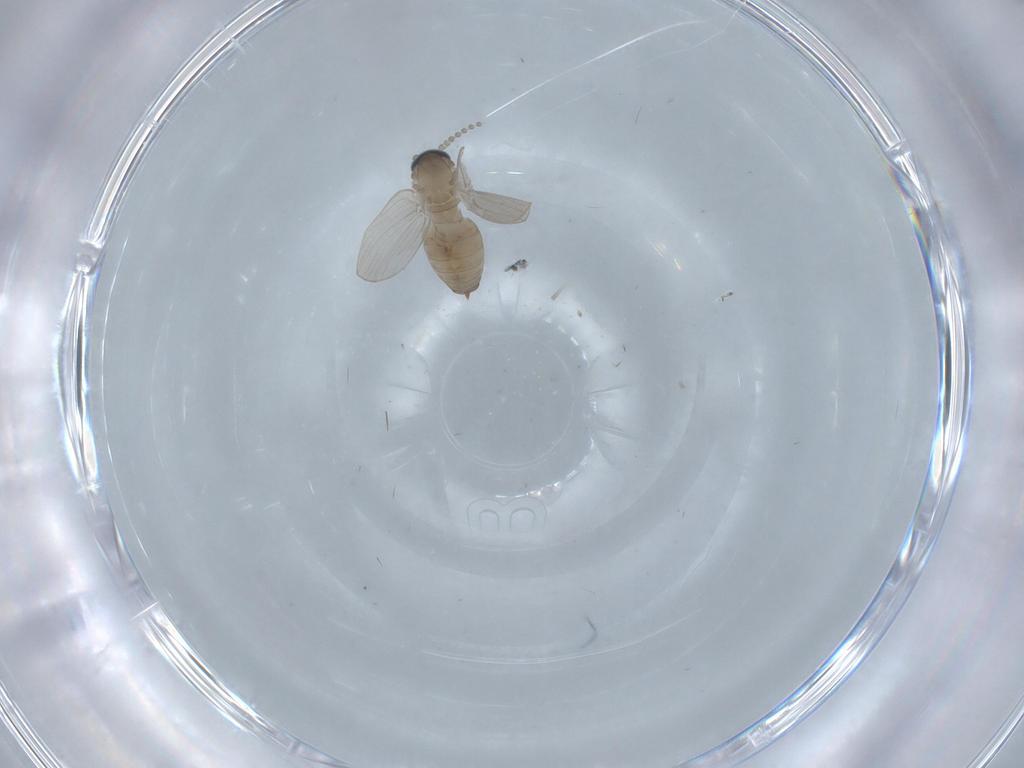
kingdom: Animalia
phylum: Arthropoda
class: Insecta
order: Diptera
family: Psychodidae
